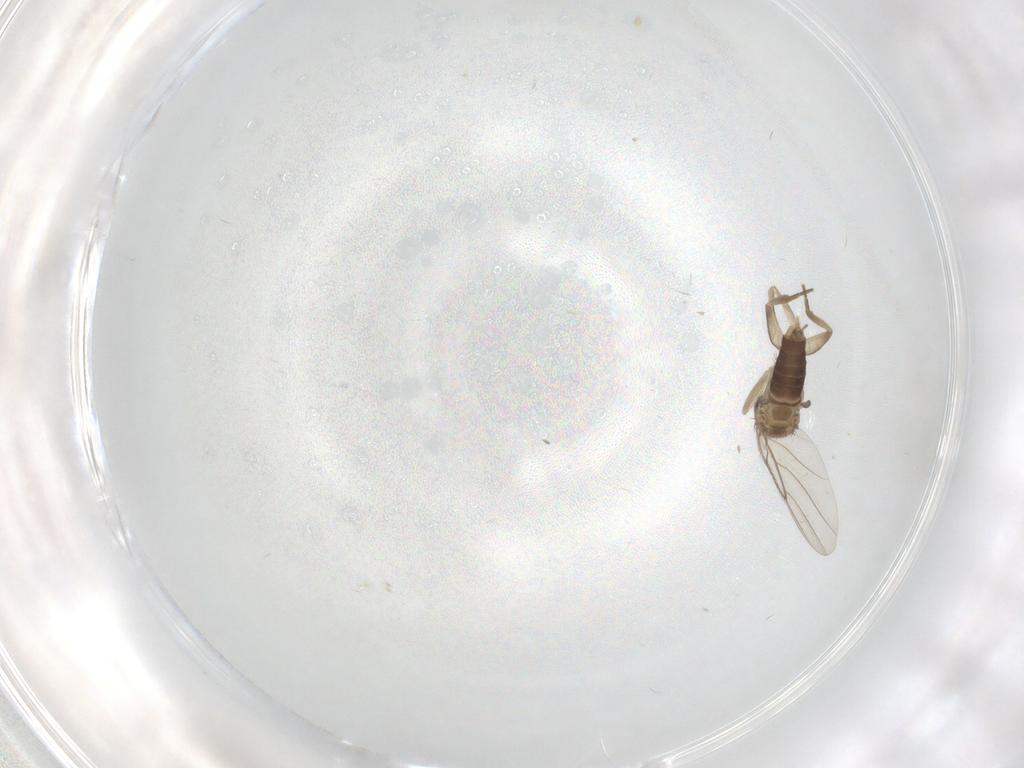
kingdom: Animalia
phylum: Arthropoda
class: Insecta
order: Diptera
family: Phoridae
